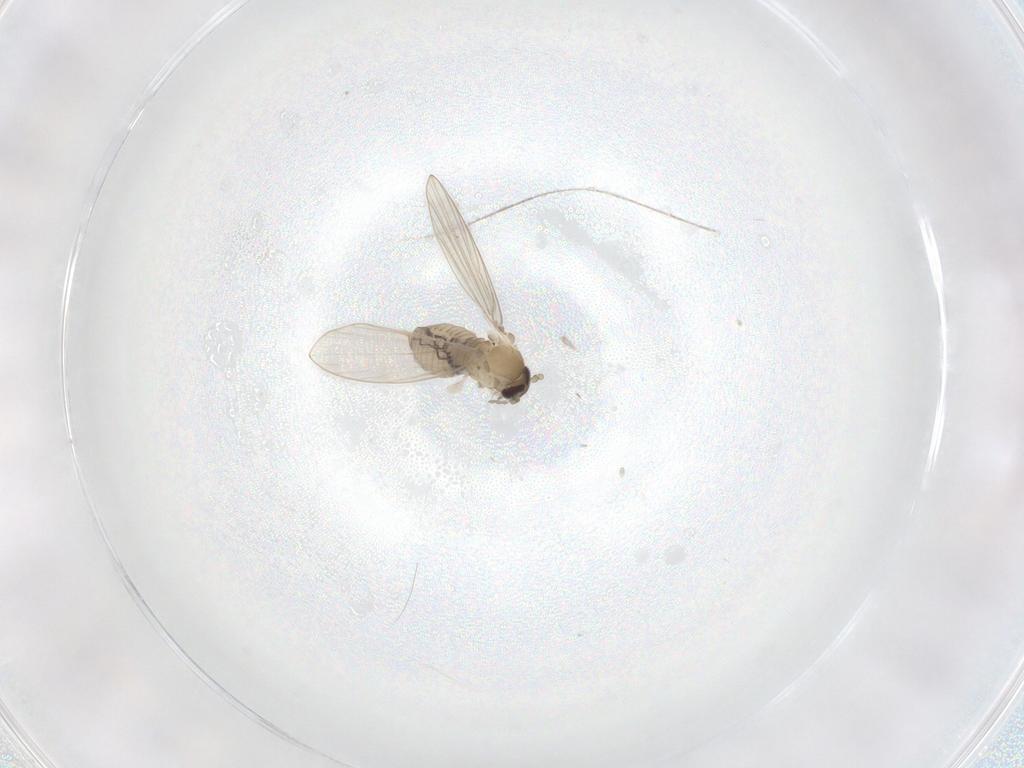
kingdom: Animalia
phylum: Arthropoda
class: Insecta
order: Diptera
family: Psychodidae
